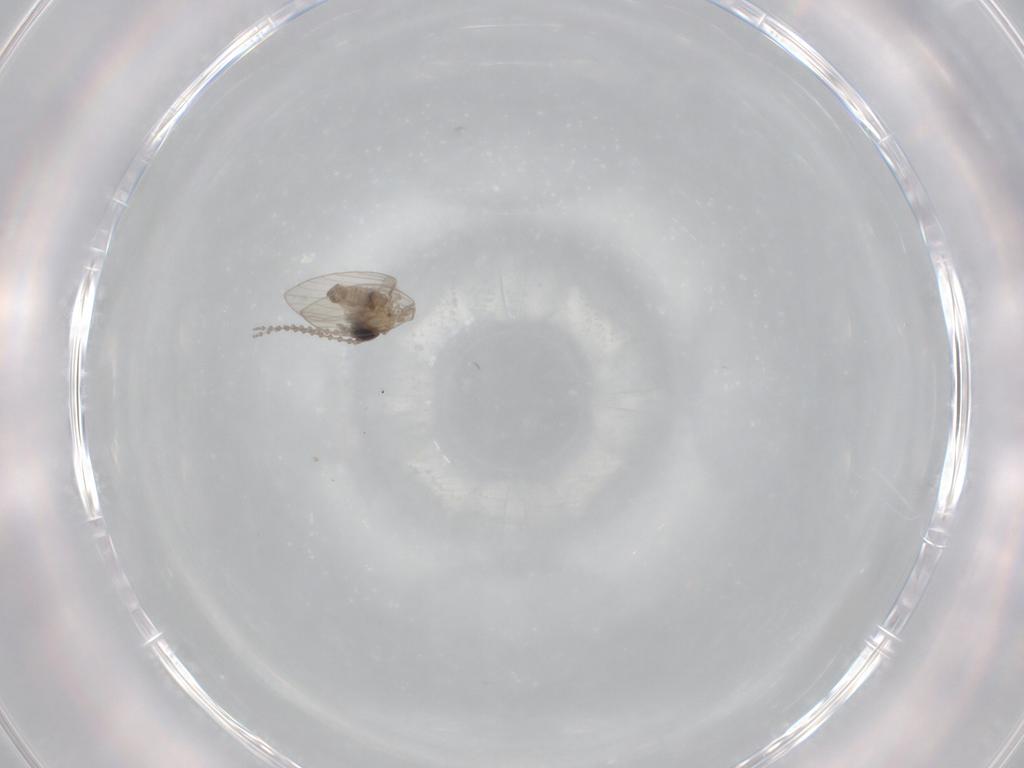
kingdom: Animalia
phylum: Arthropoda
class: Insecta
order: Diptera
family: Psychodidae
